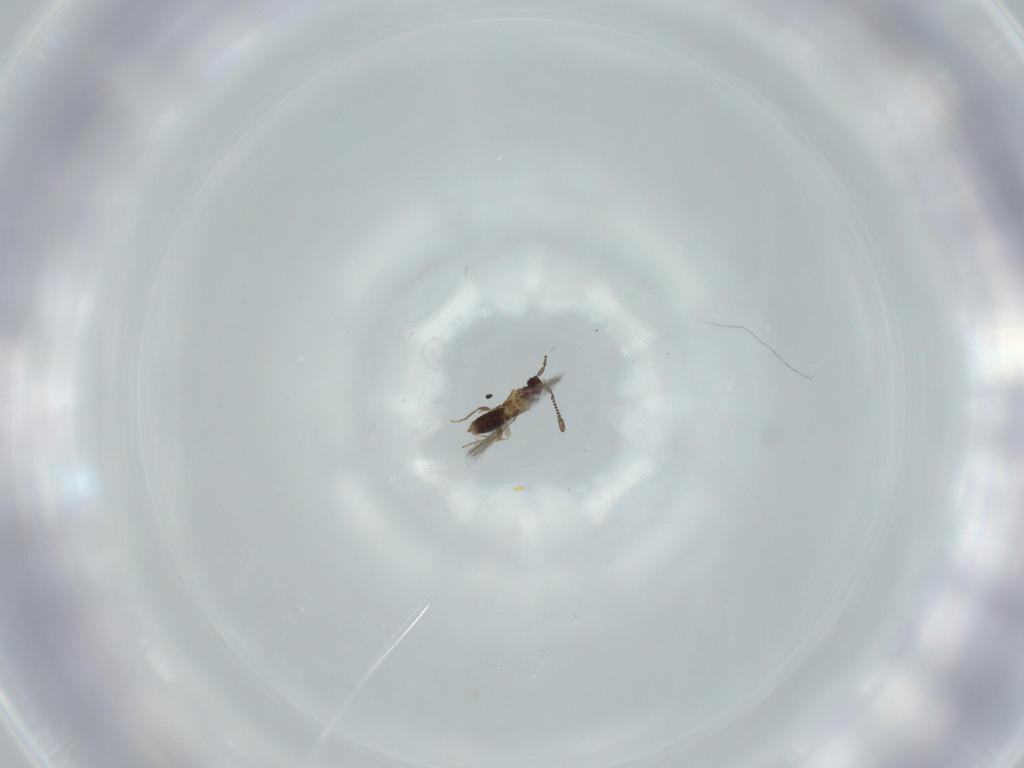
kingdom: Animalia
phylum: Arthropoda
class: Insecta
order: Hymenoptera
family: Mymaridae
